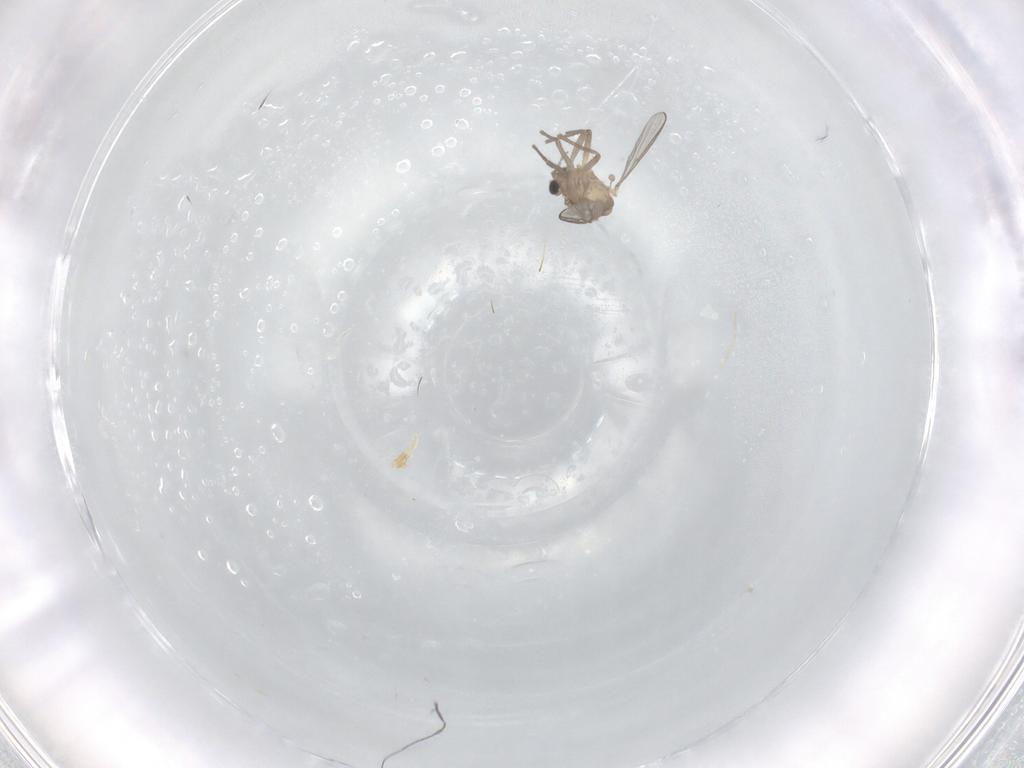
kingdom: Animalia
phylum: Arthropoda
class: Insecta
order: Diptera
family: Chironomidae
